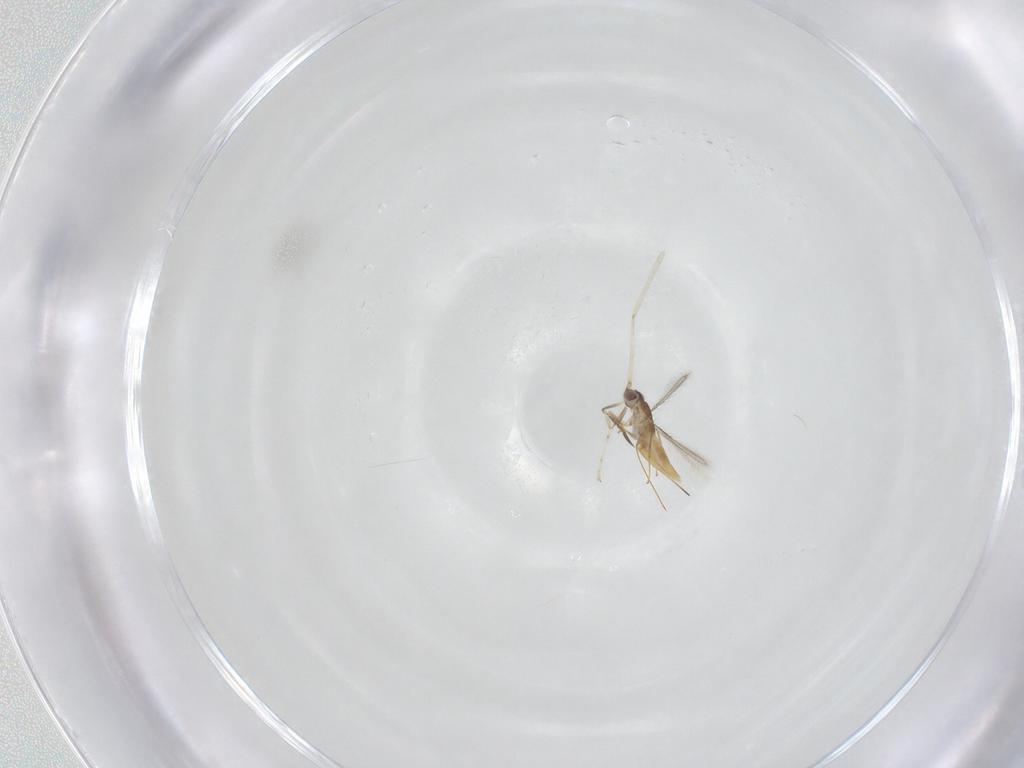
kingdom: Animalia
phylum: Arthropoda
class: Insecta
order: Hymenoptera
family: Mymaridae
